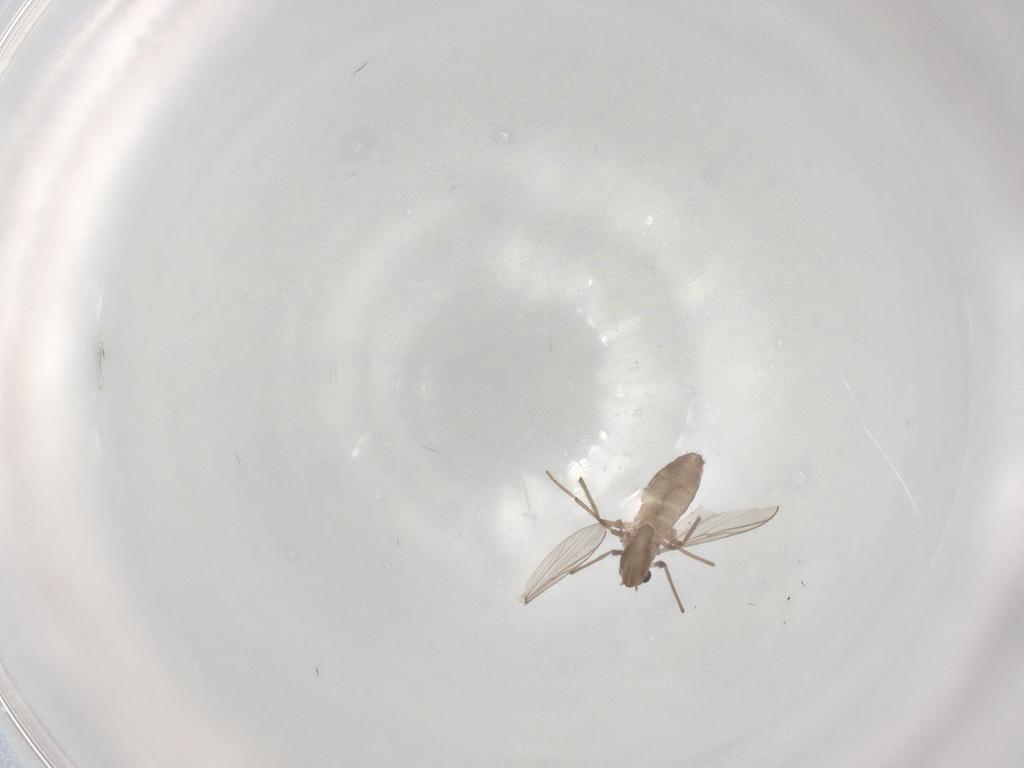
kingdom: Animalia
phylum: Arthropoda
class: Insecta
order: Diptera
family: Chironomidae
